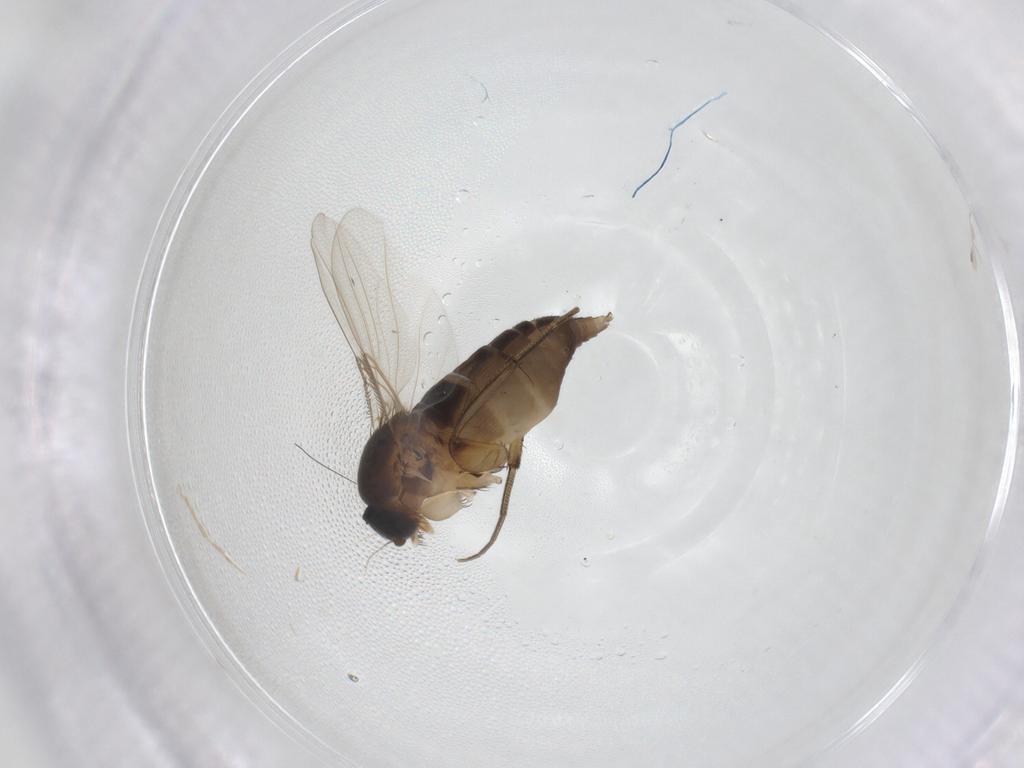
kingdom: Animalia
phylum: Arthropoda
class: Insecta
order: Diptera
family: Phoridae
